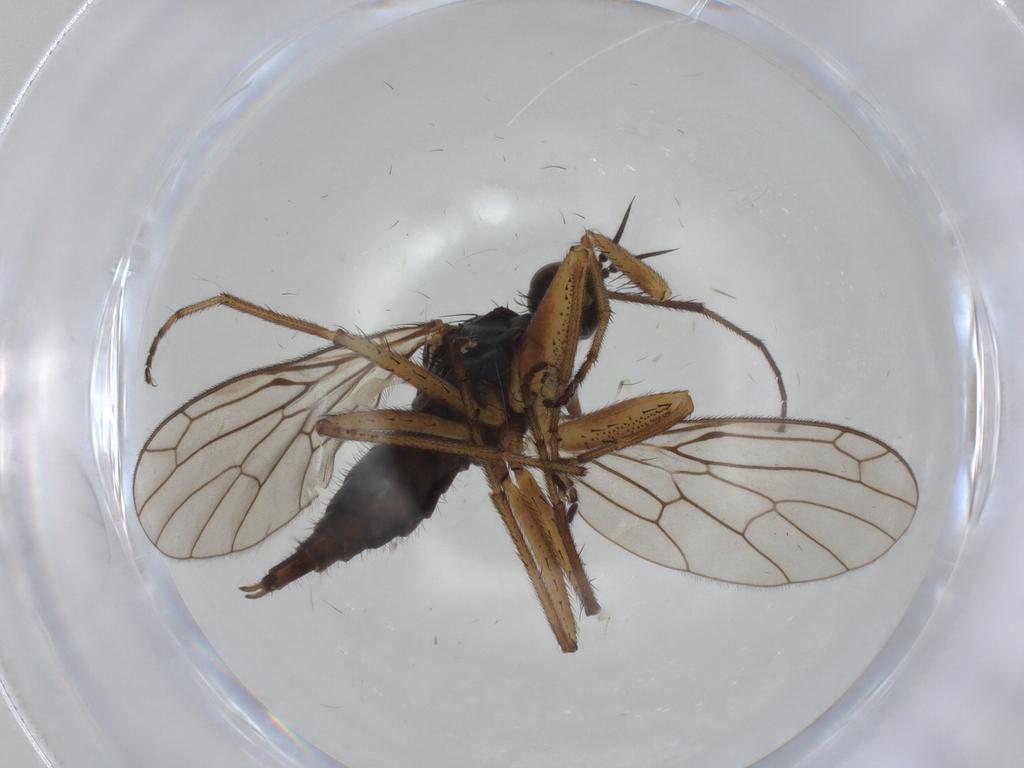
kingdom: Animalia
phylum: Arthropoda
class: Insecta
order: Diptera
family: Chironomidae
